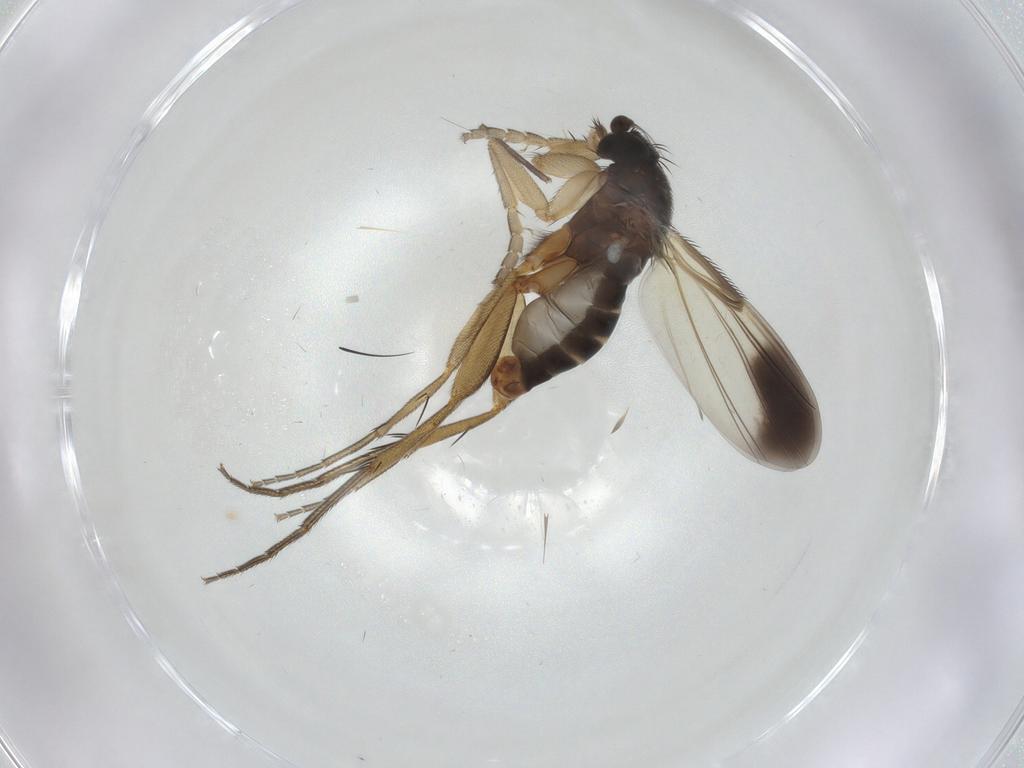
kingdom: Animalia
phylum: Arthropoda
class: Insecta
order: Diptera
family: Phoridae
